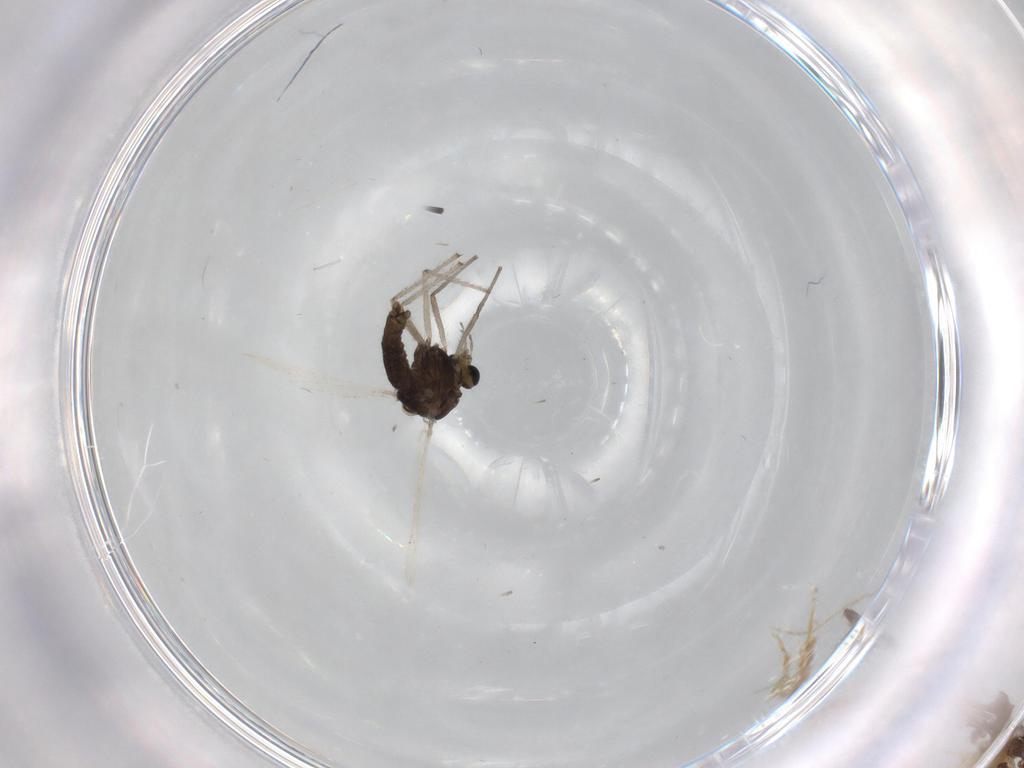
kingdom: Animalia
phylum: Arthropoda
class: Insecta
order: Diptera
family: Chironomidae
